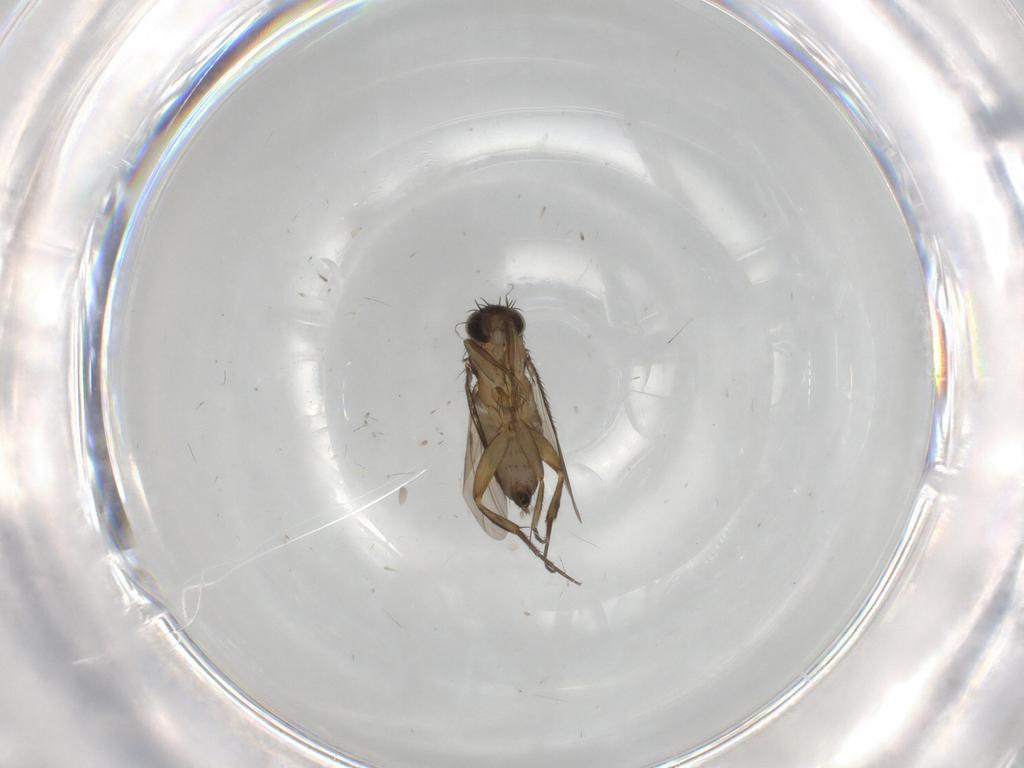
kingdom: Animalia
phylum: Arthropoda
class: Insecta
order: Diptera
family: Phoridae
